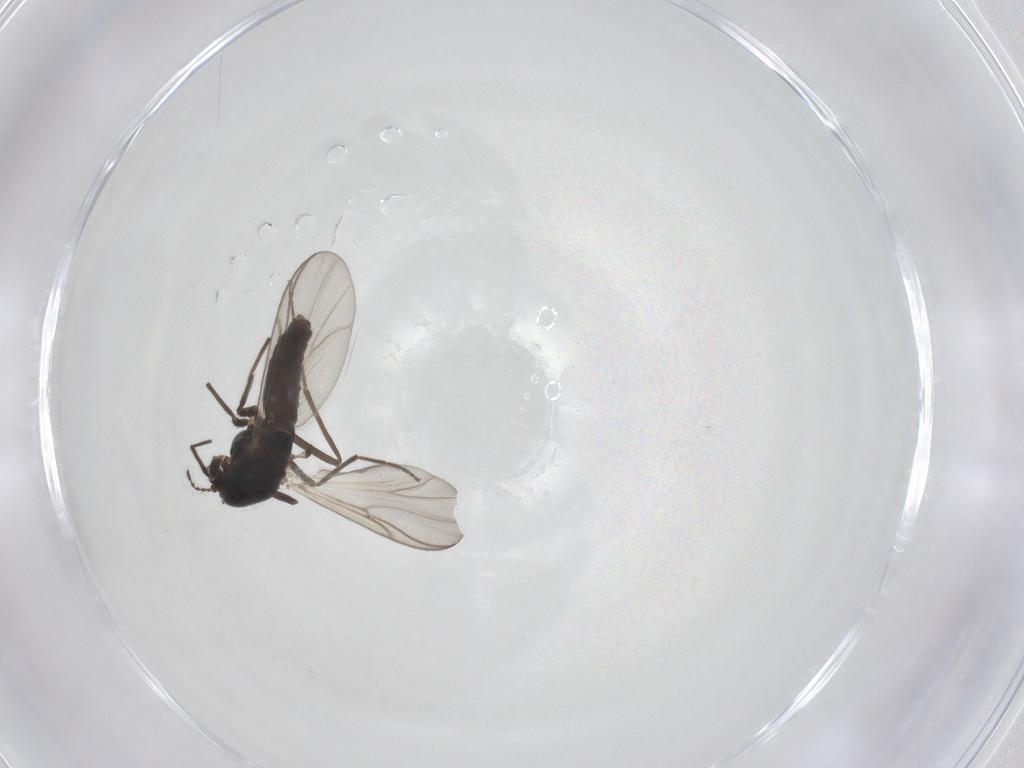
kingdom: Animalia
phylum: Arthropoda
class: Insecta
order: Diptera
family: Chironomidae
